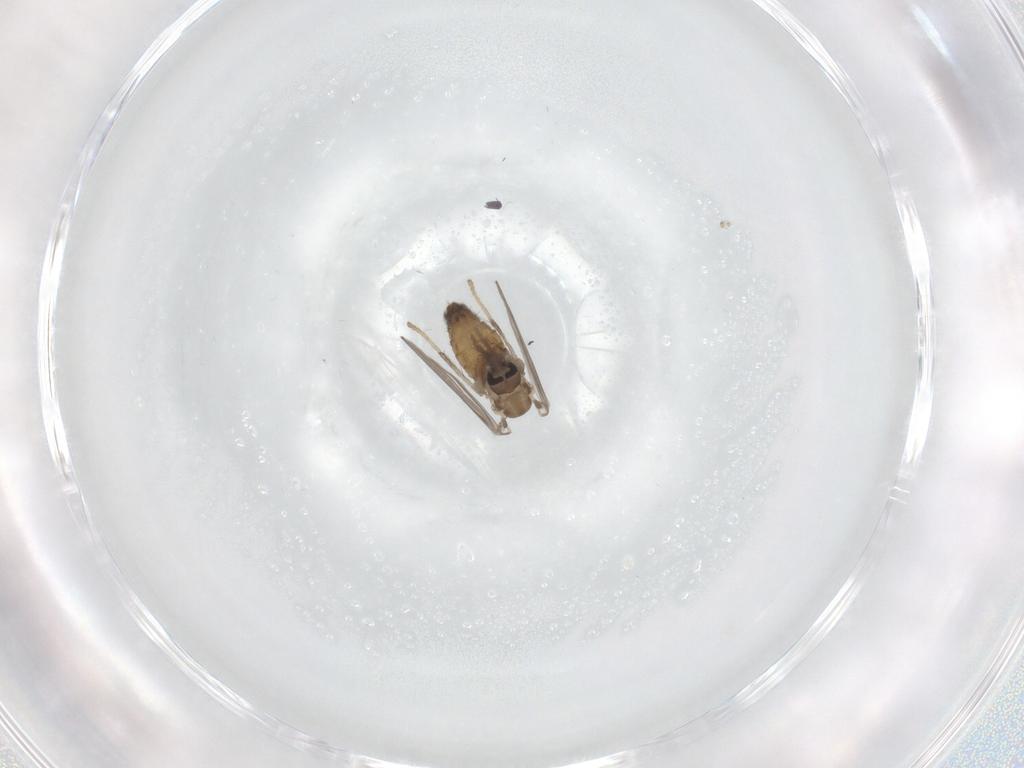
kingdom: Animalia
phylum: Arthropoda
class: Insecta
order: Diptera
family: Psychodidae
